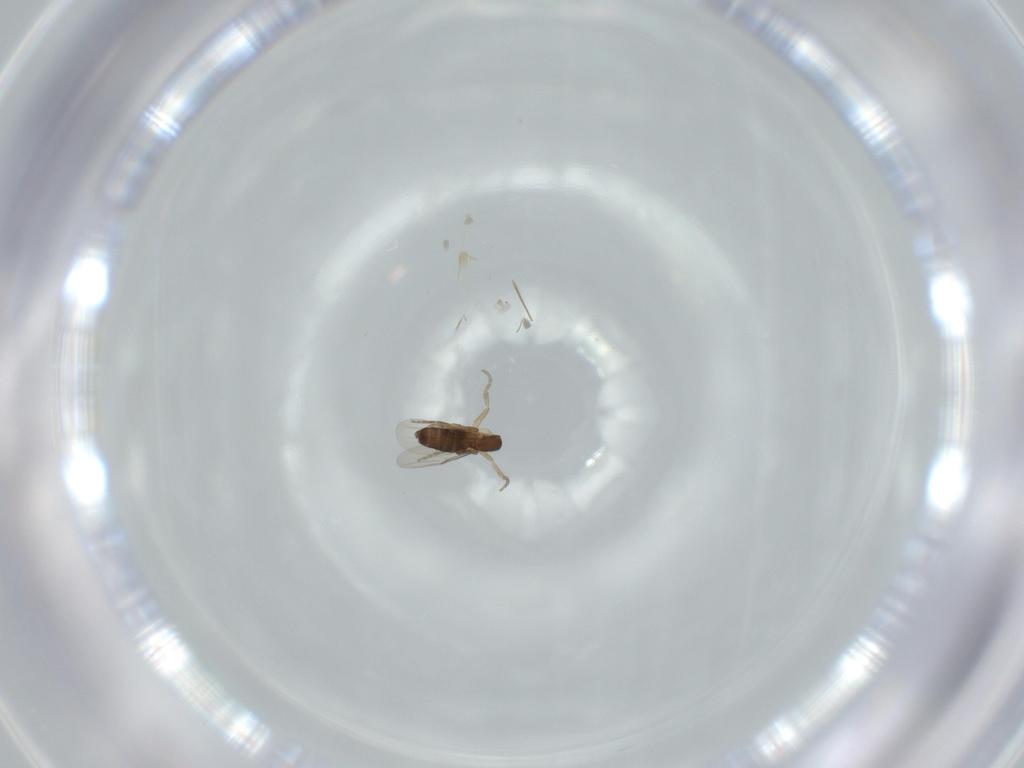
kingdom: Animalia
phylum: Arthropoda
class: Insecta
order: Diptera
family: Phoridae
